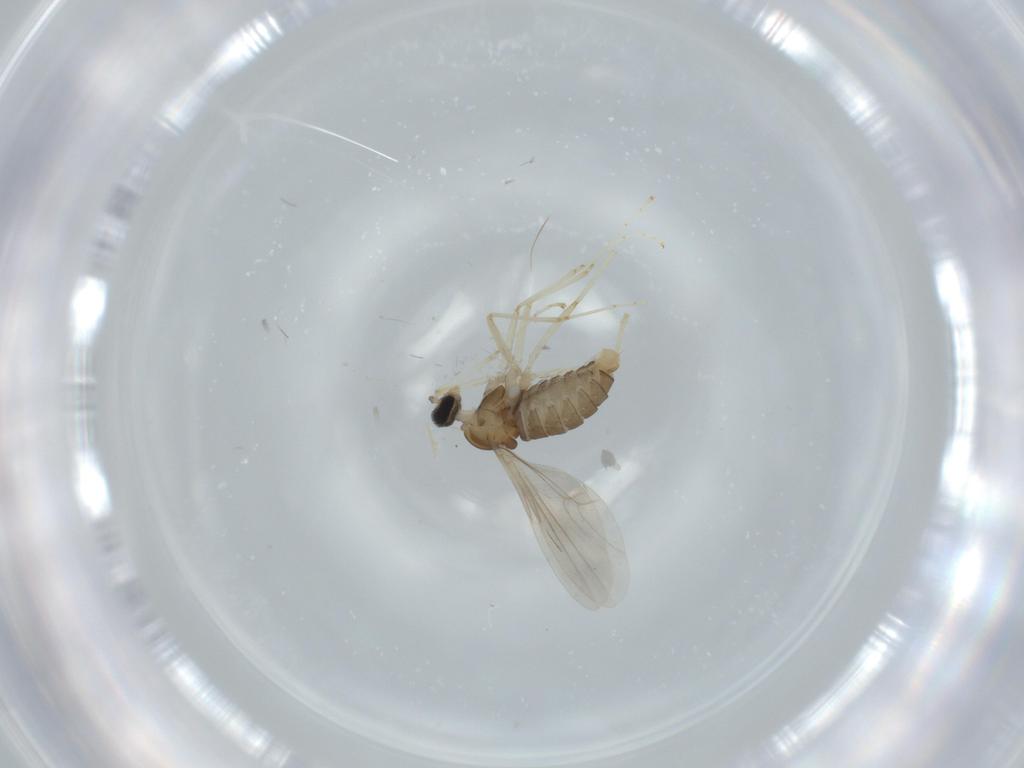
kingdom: Animalia
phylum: Arthropoda
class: Insecta
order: Diptera
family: Cecidomyiidae
